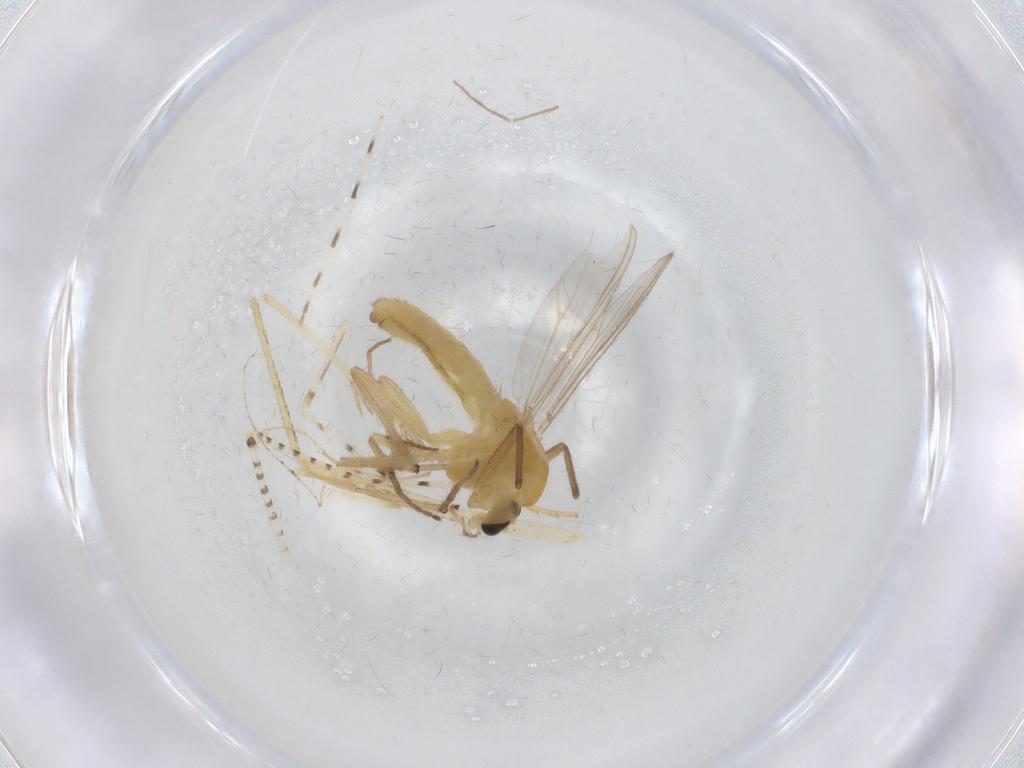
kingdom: Animalia
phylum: Arthropoda
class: Insecta
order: Diptera
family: Chironomidae
